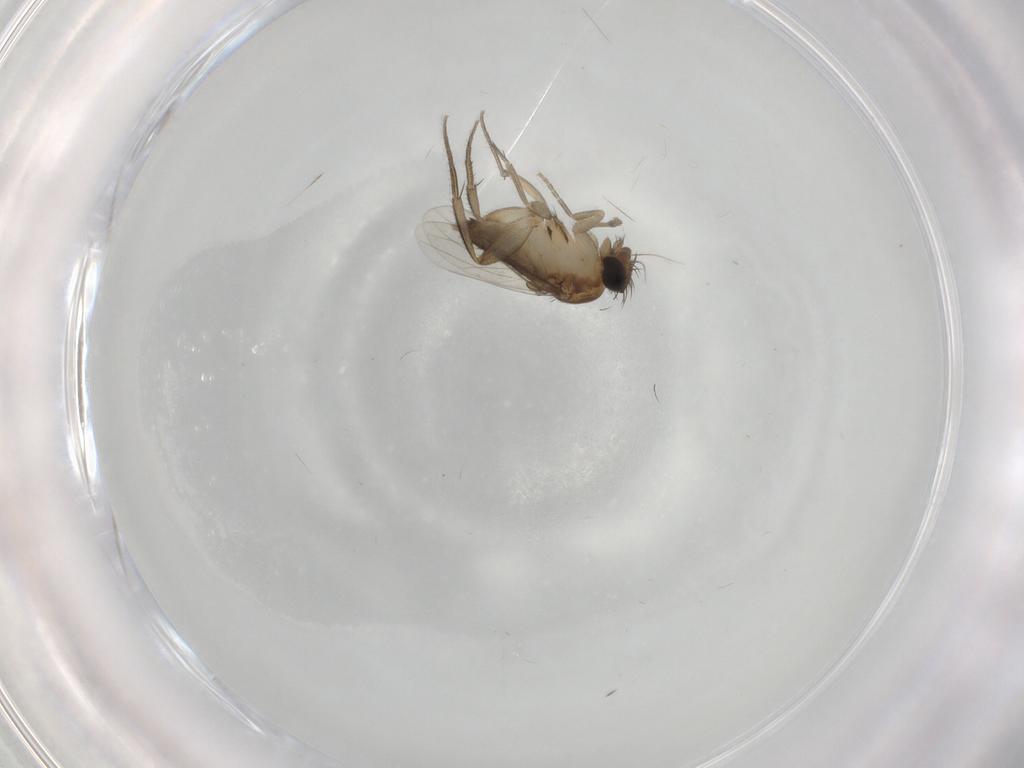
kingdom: Animalia
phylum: Arthropoda
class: Insecta
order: Diptera
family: Phoridae
